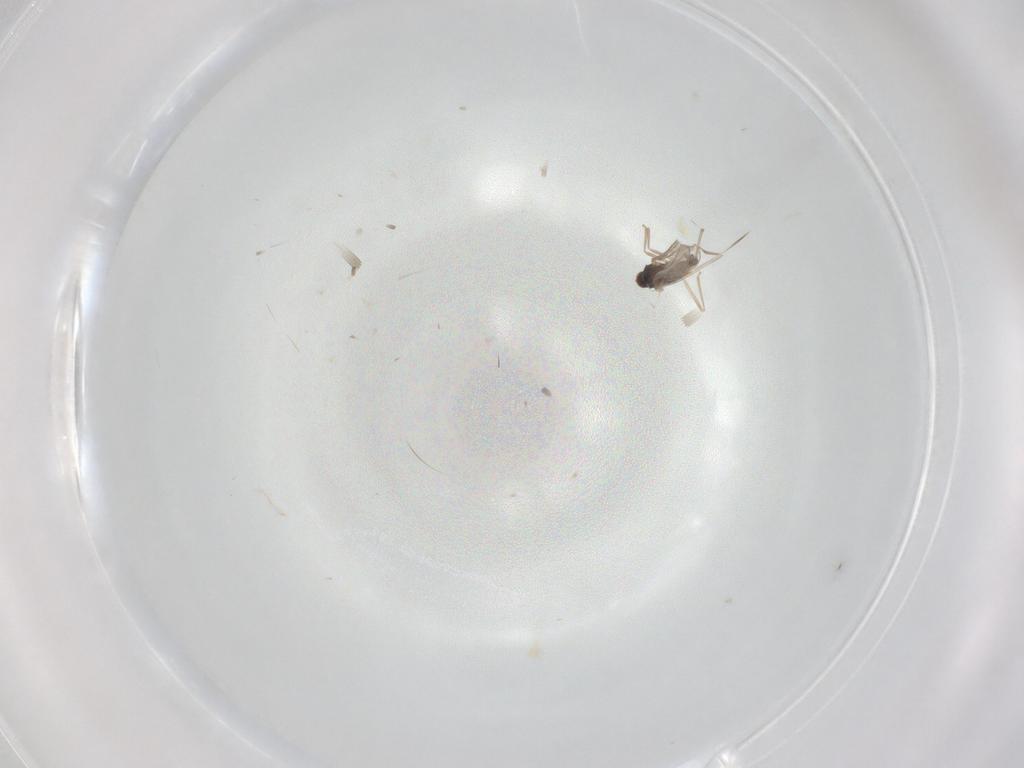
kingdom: Animalia
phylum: Arthropoda
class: Insecta
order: Diptera
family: Cecidomyiidae
